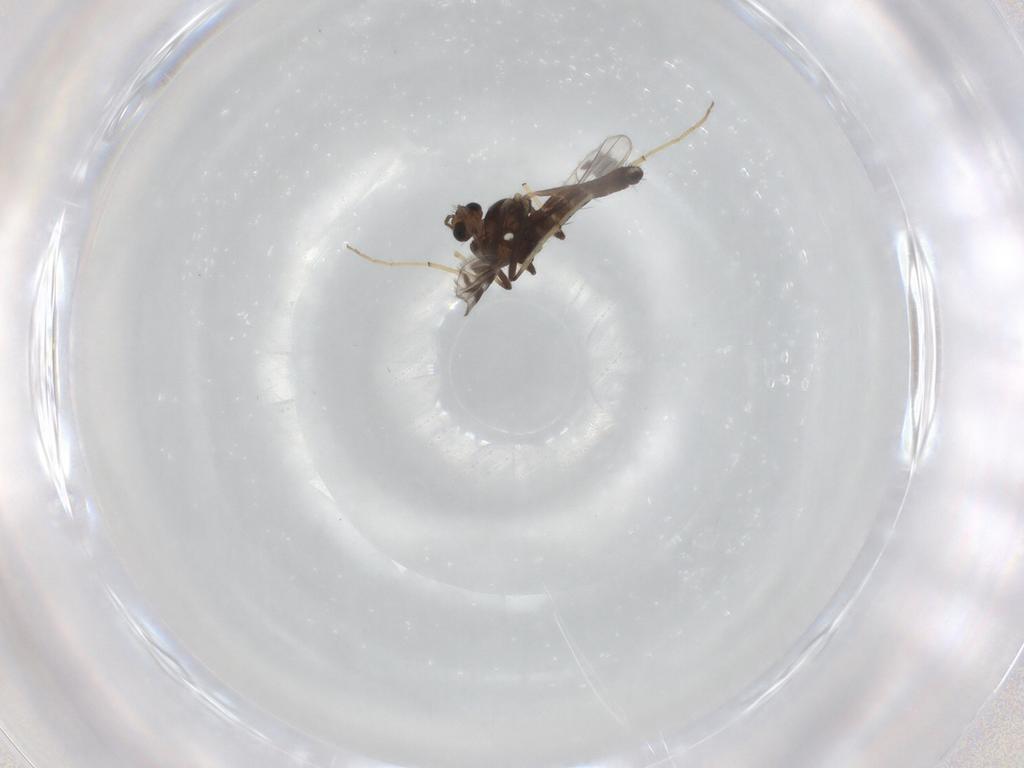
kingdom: Animalia
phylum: Arthropoda
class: Insecta
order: Diptera
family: Chironomidae
